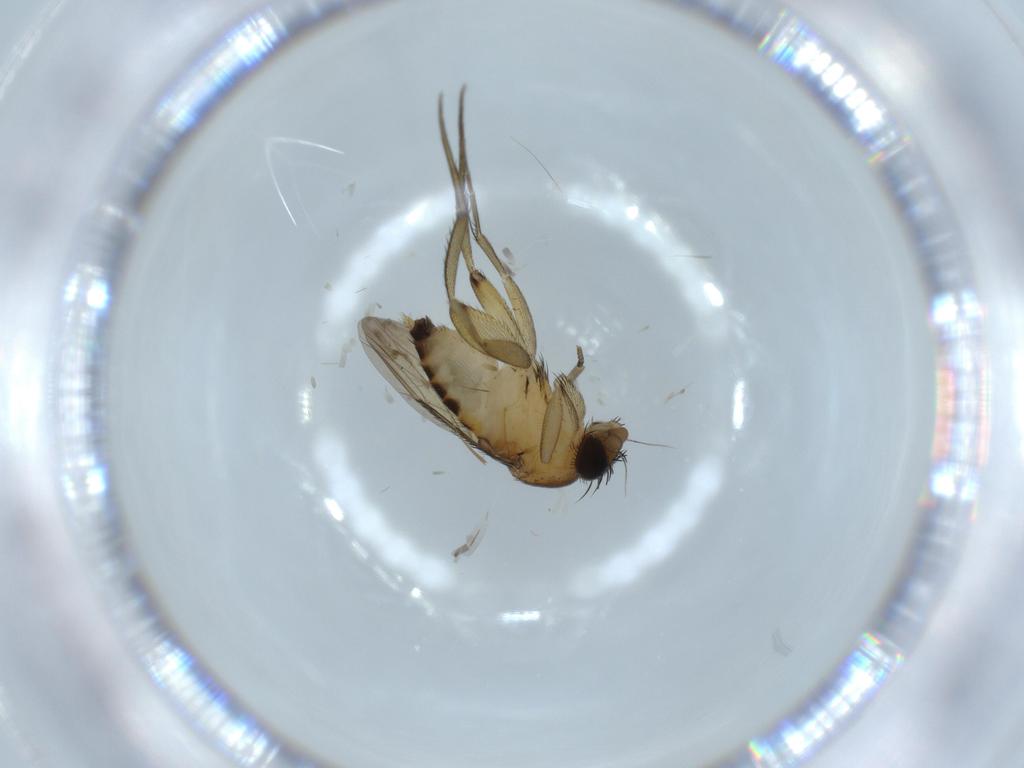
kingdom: Animalia
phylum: Arthropoda
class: Insecta
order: Diptera
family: Phoridae
